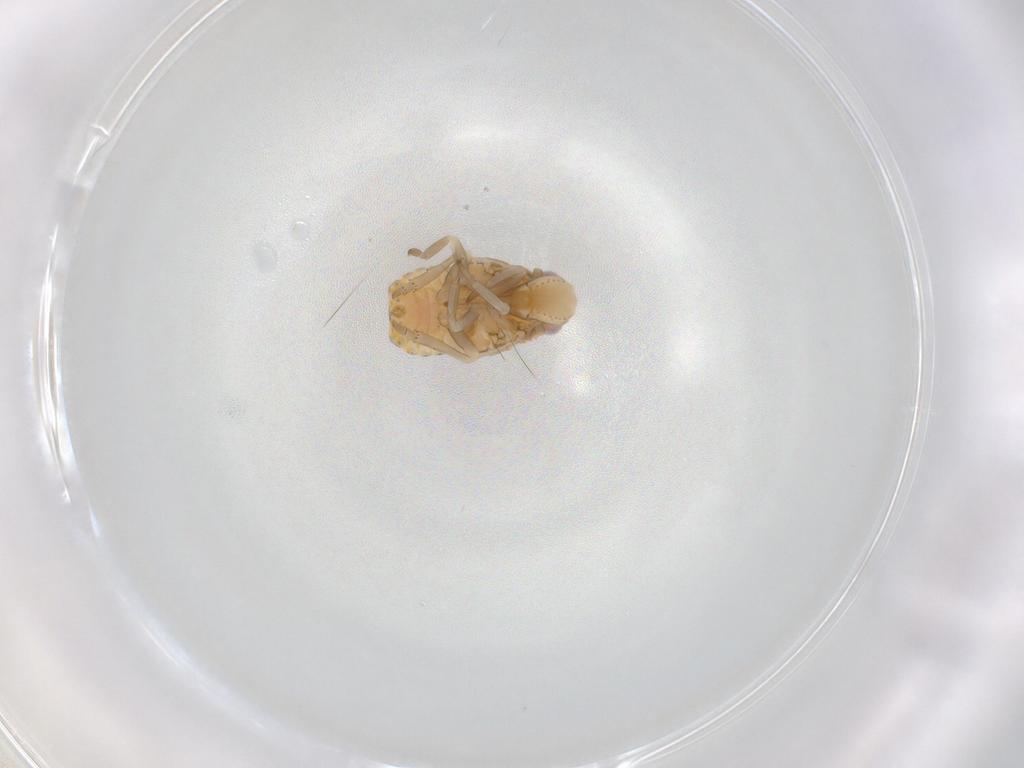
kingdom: Animalia
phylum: Arthropoda
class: Insecta
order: Hemiptera
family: Flatidae
